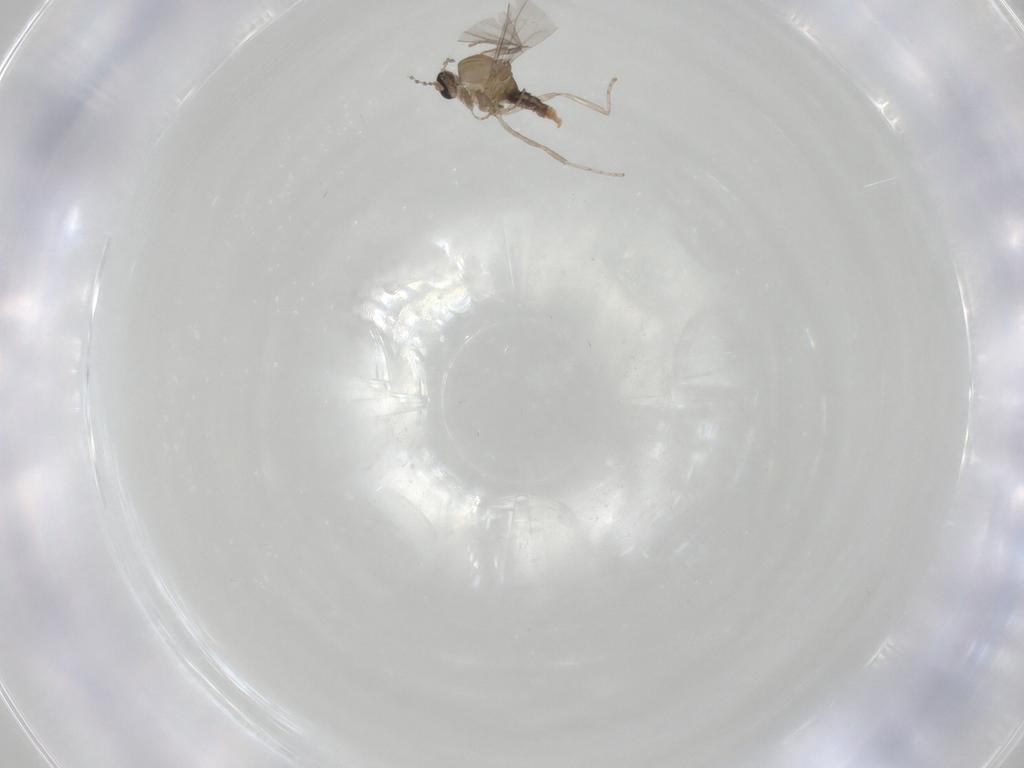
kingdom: Animalia
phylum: Arthropoda
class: Insecta
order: Diptera
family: Cecidomyiidae
